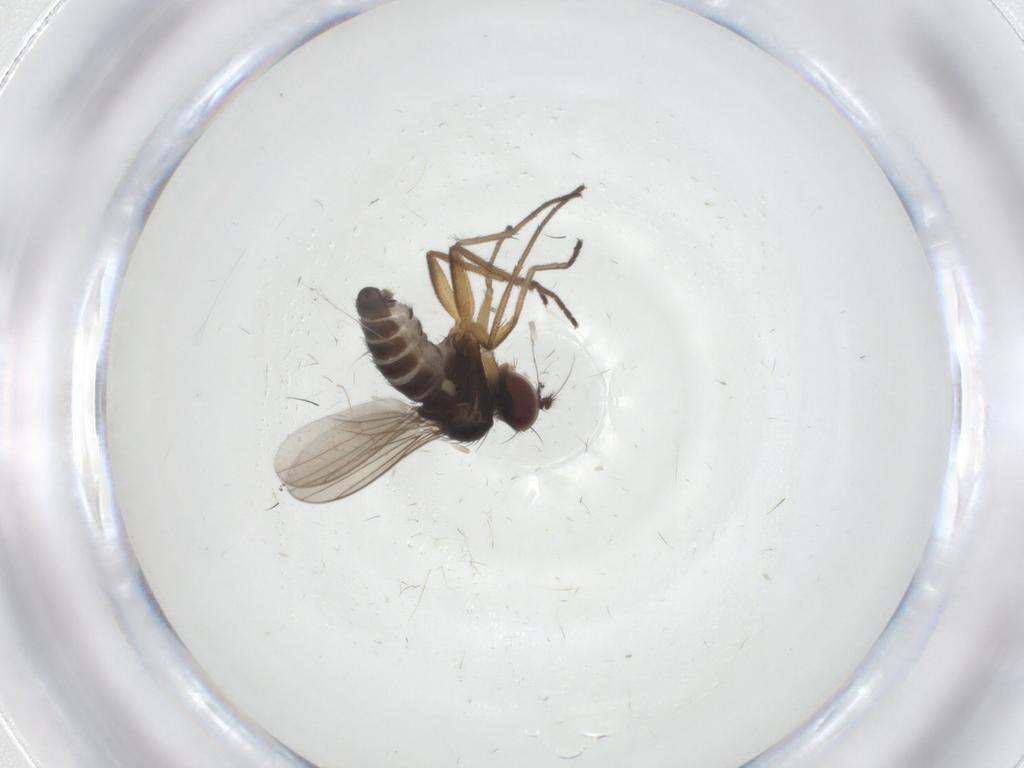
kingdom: Animalia
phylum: Arthropoda
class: Insecta
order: Diptera
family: Dolichopodidae
